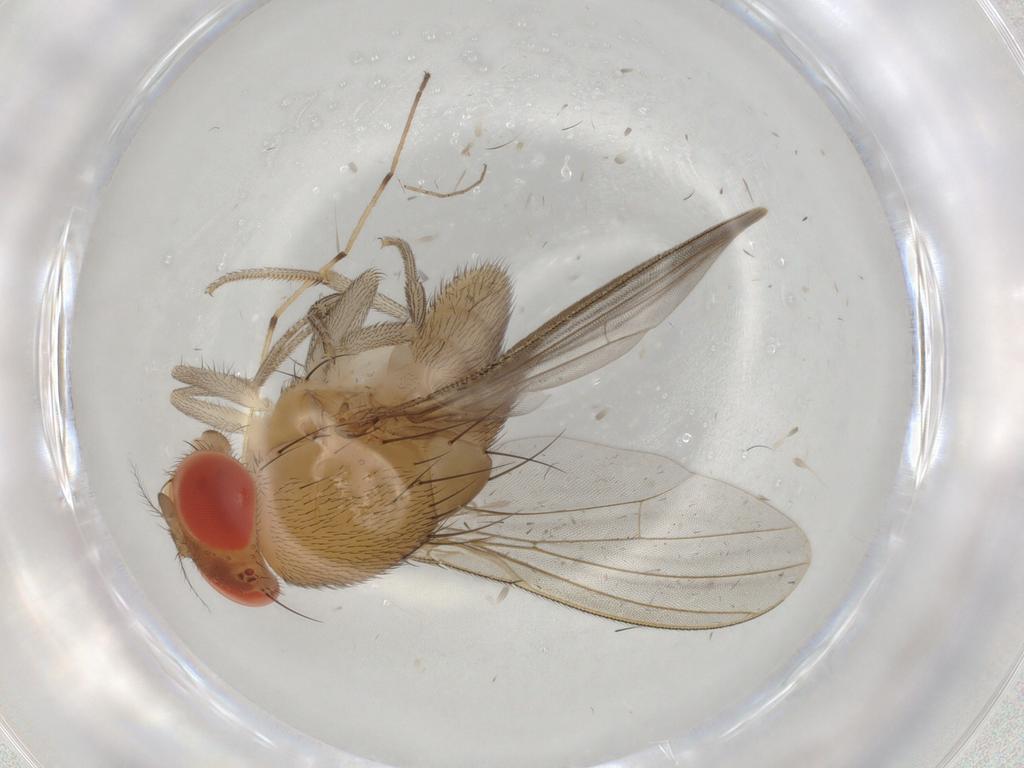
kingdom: Animalia
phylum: Arthropoda
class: Insecta
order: Diptera
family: Drosophilidae
